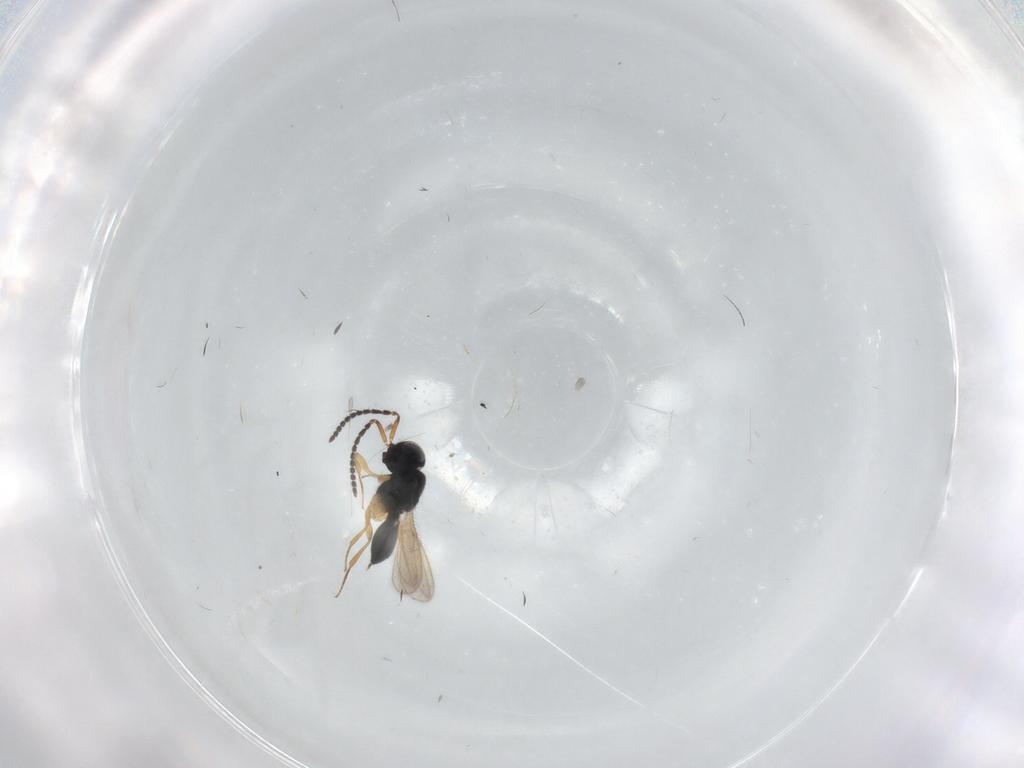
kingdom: Animalia
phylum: Arthropoda
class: Insecta
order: Hymenoptera
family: Scelionidae
